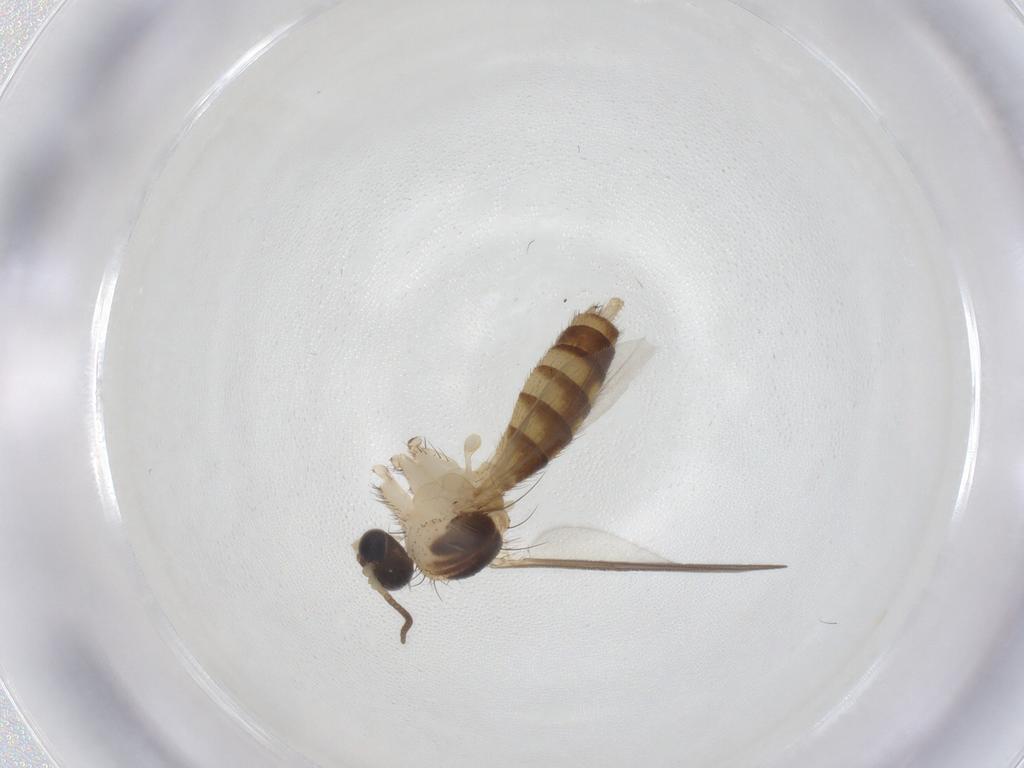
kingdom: Animalia
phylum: Arthropoda
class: Insecta
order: Diptera
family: Mycetophilidae
